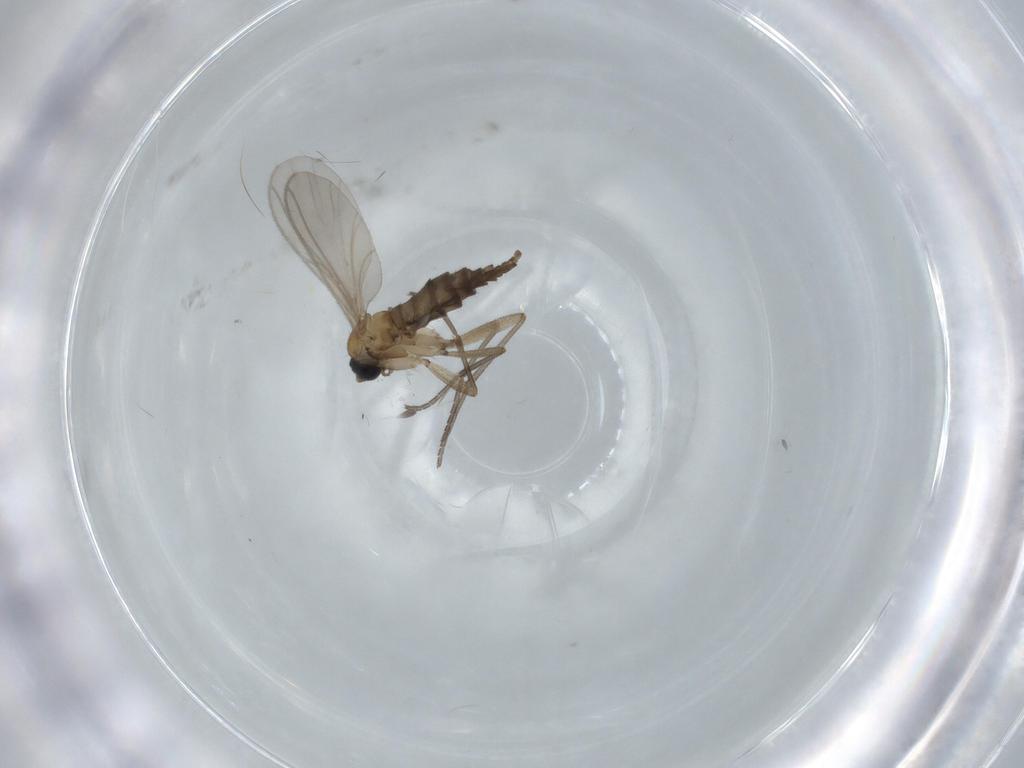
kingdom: Animalia
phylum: Arthropoda
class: Insecta
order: Diptera
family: Sciaridae
